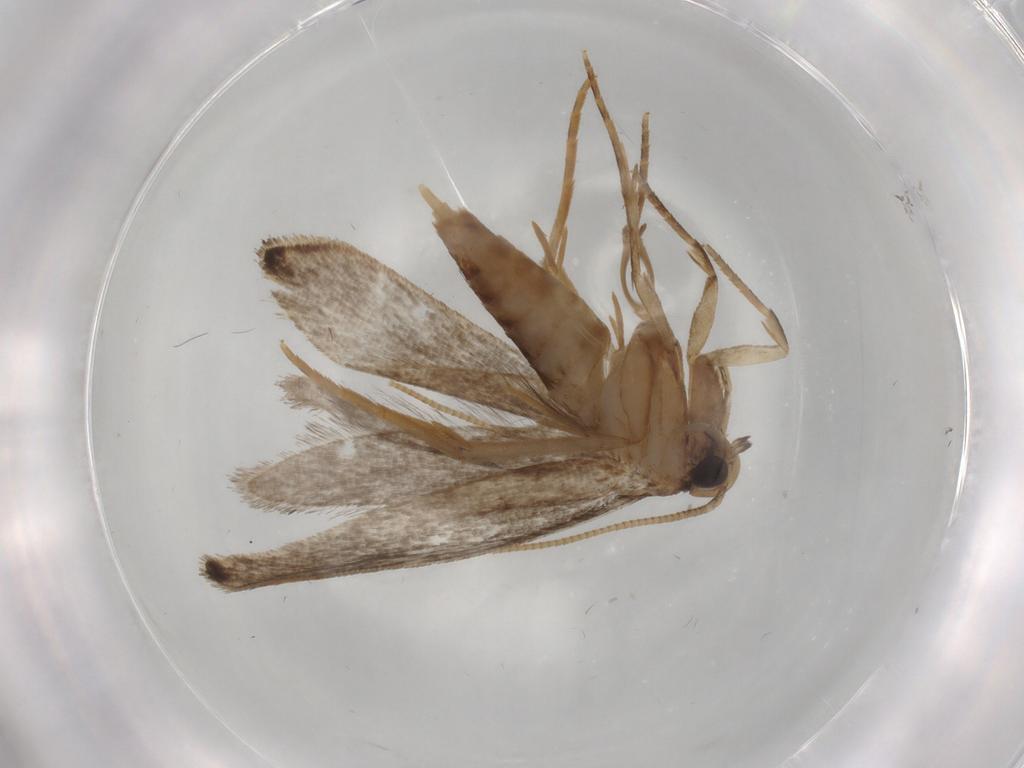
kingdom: Animalia
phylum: Arthropoda
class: Insecta
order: Lepidoptera
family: Tineidae
